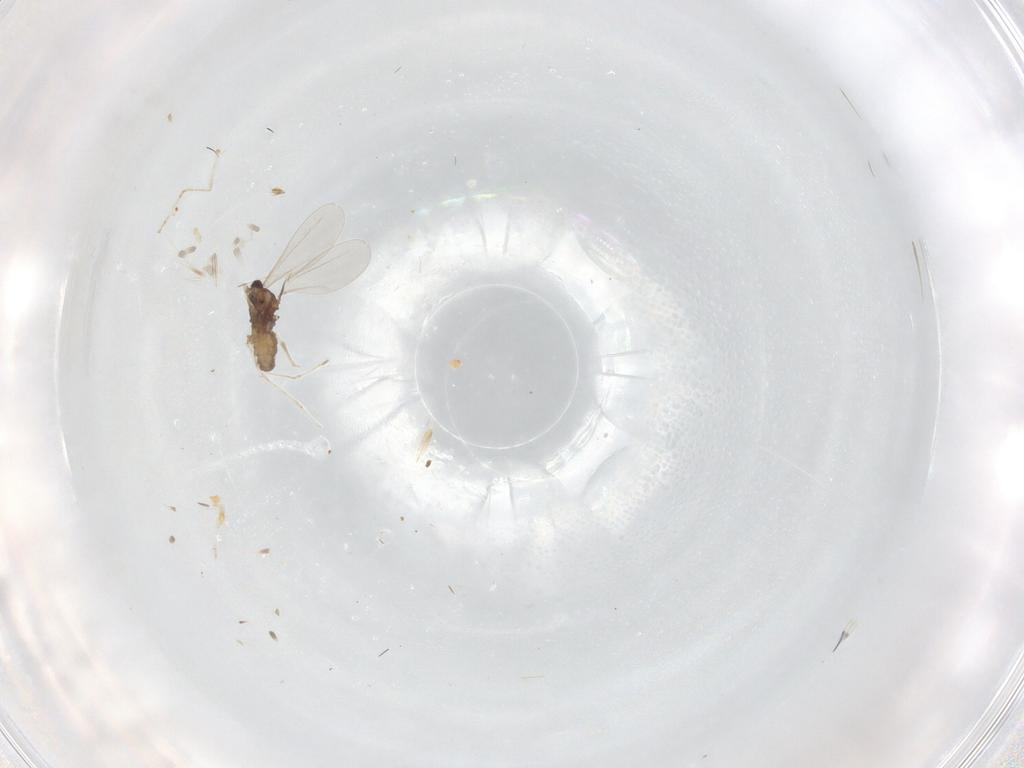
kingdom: Animalia
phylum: Arthropoda
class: Insecta
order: Diptera
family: Cecidomyiidae
